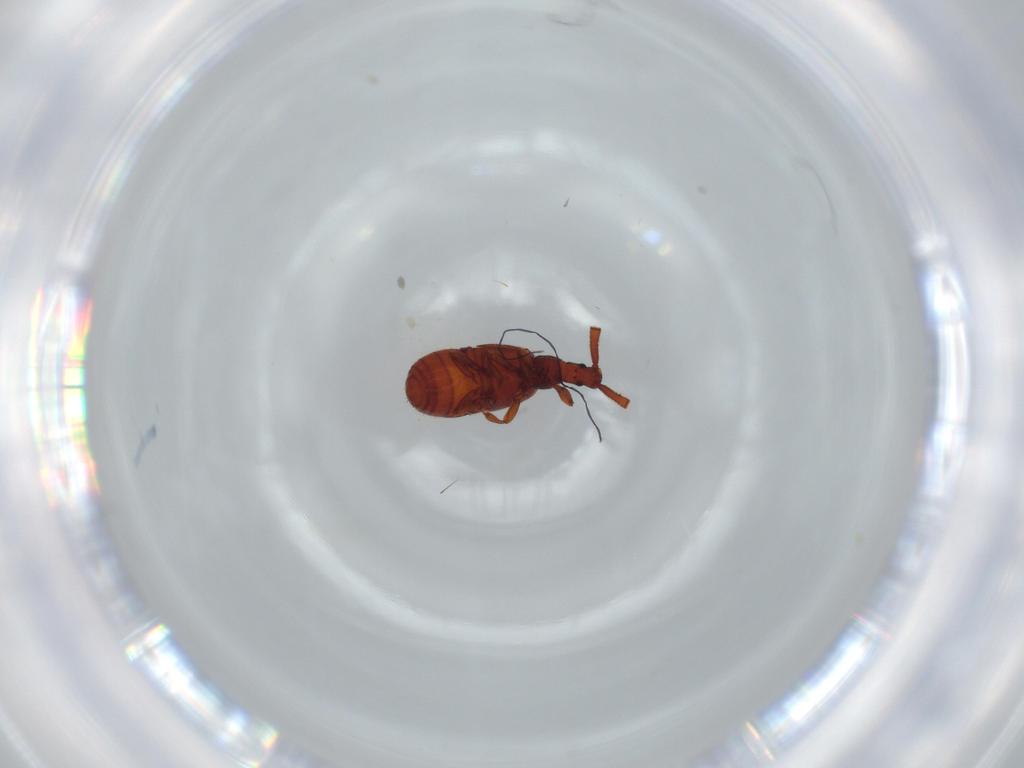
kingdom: Animalia
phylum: Arthropoda
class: Insecta
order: Coleoptera
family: Staphylinidae
